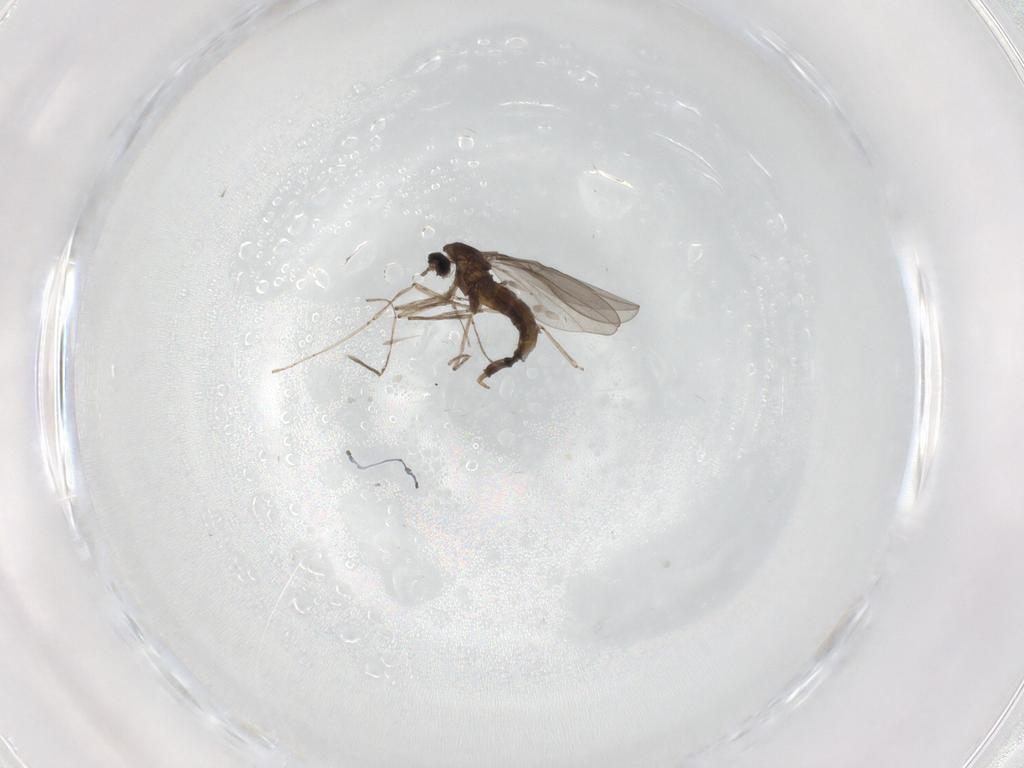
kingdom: Animalia
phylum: Arthropoda
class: Insecta
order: Diptera
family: Cecidomyiidae
